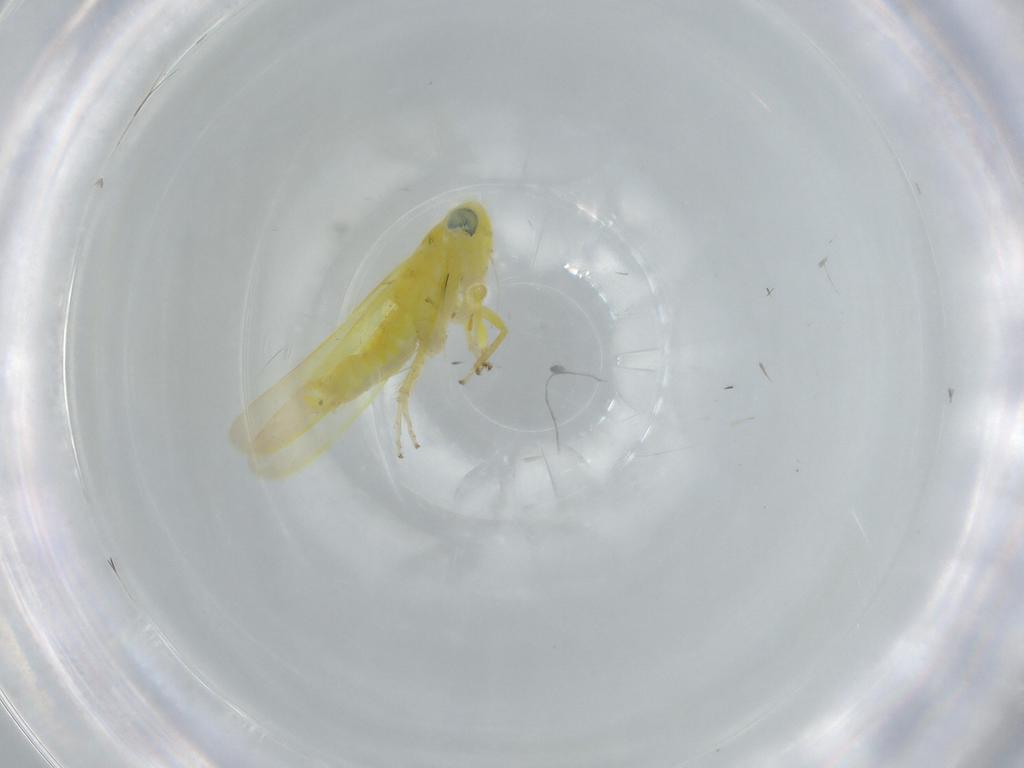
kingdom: Animalia
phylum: Arthropoda
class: Insecta
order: Hemiptera
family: Cicadellidae
